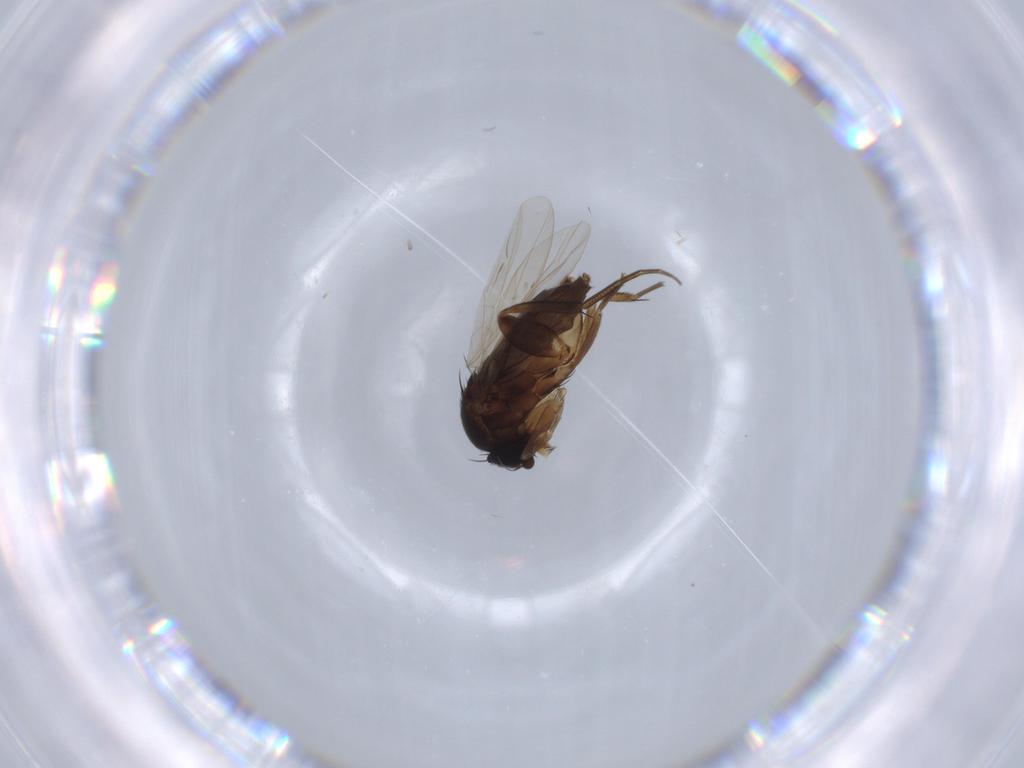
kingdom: Animalia
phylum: Arthropoda
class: Insecta
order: Diptera
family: Phoridae
